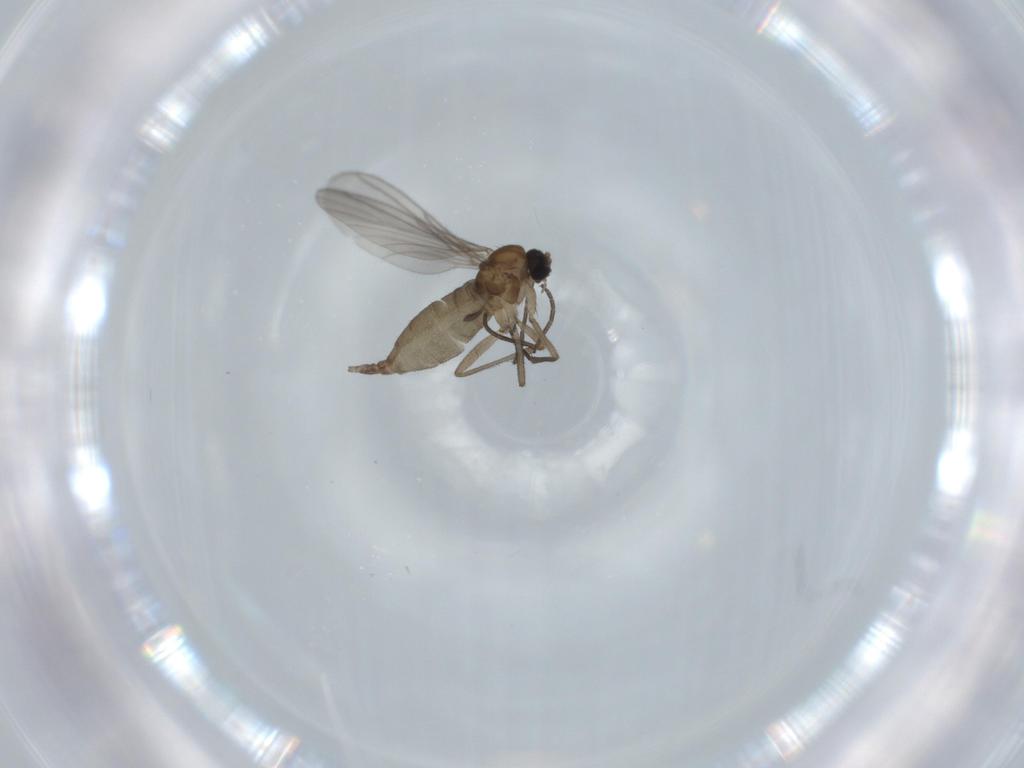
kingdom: Animalia
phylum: Arthropoda
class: Insecta
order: Diptera
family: Sciaridae
